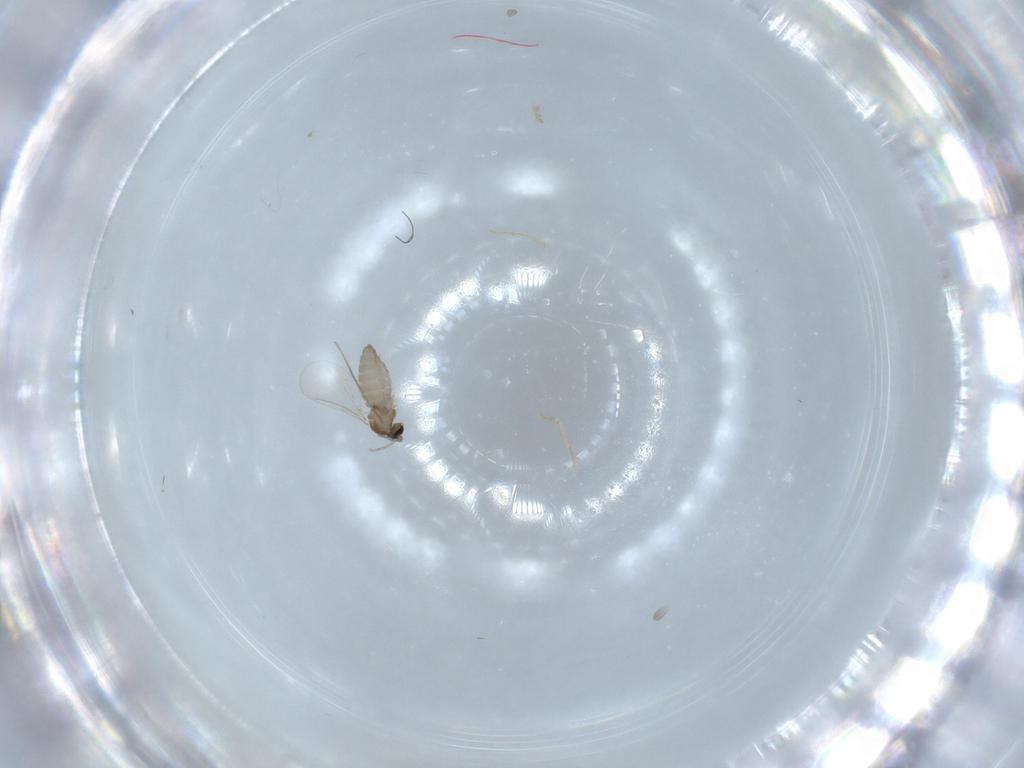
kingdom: Animalia
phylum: Arthropoda
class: Insecta
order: Diptera
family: Cecidomyiidae
